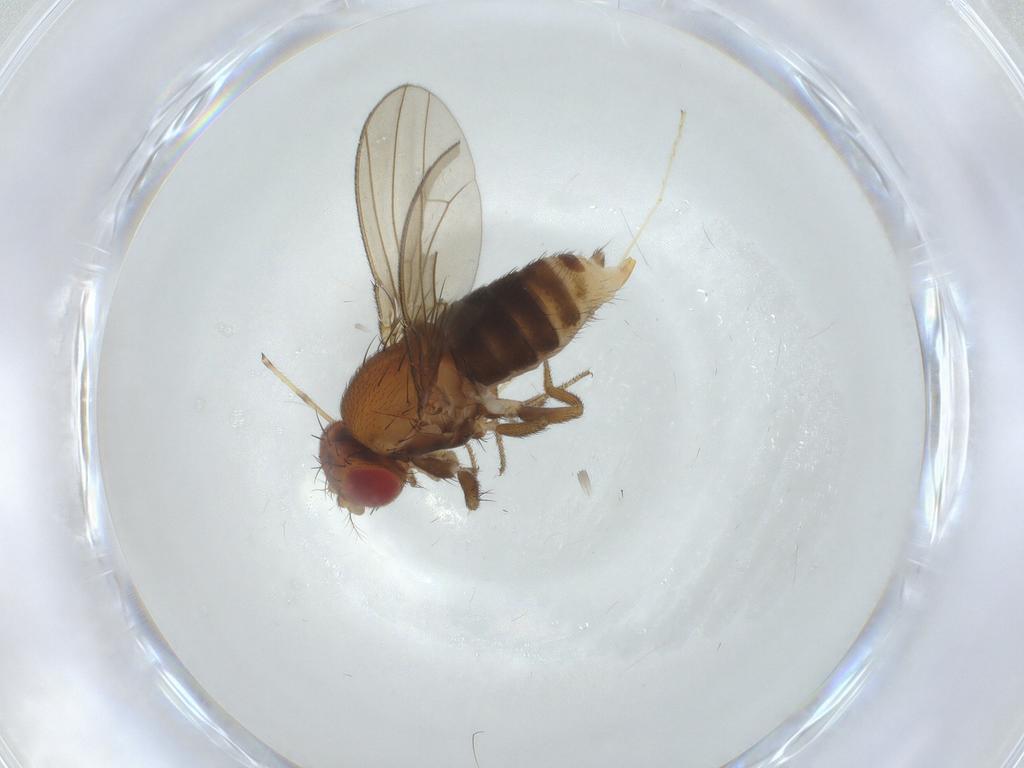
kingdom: Animalia
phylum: Arthropoda
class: Insecta
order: Diptera
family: Drosophilidae
